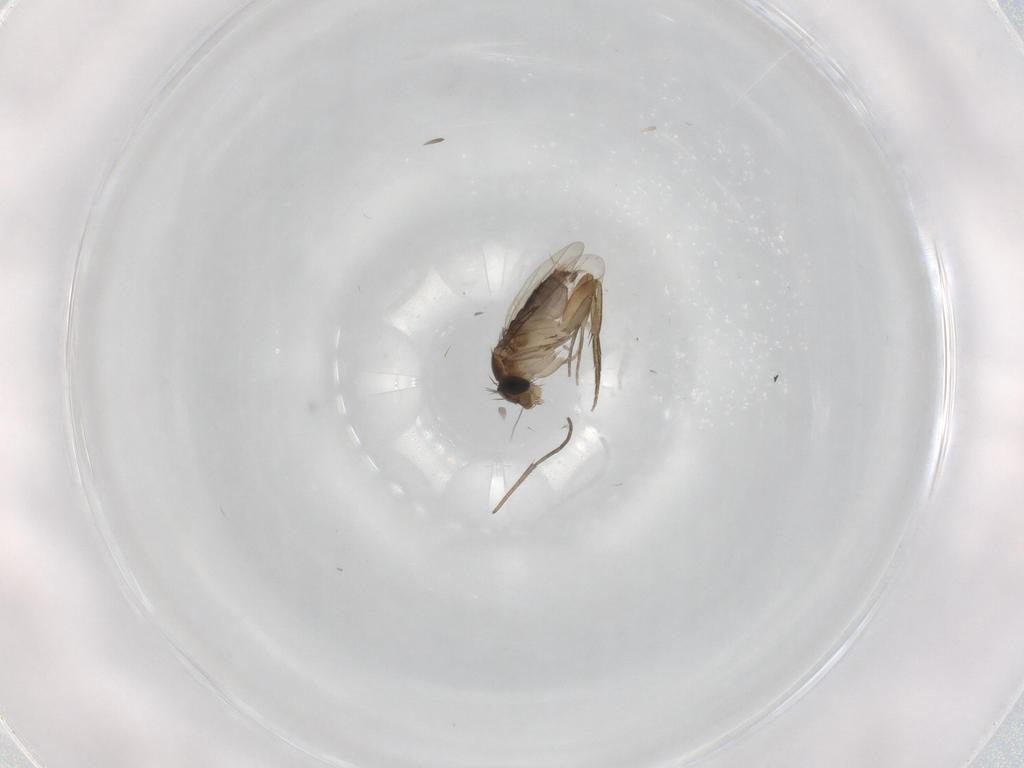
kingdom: Animalia
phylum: Arthropoda
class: Insecta
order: Diptera
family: Phoridae
